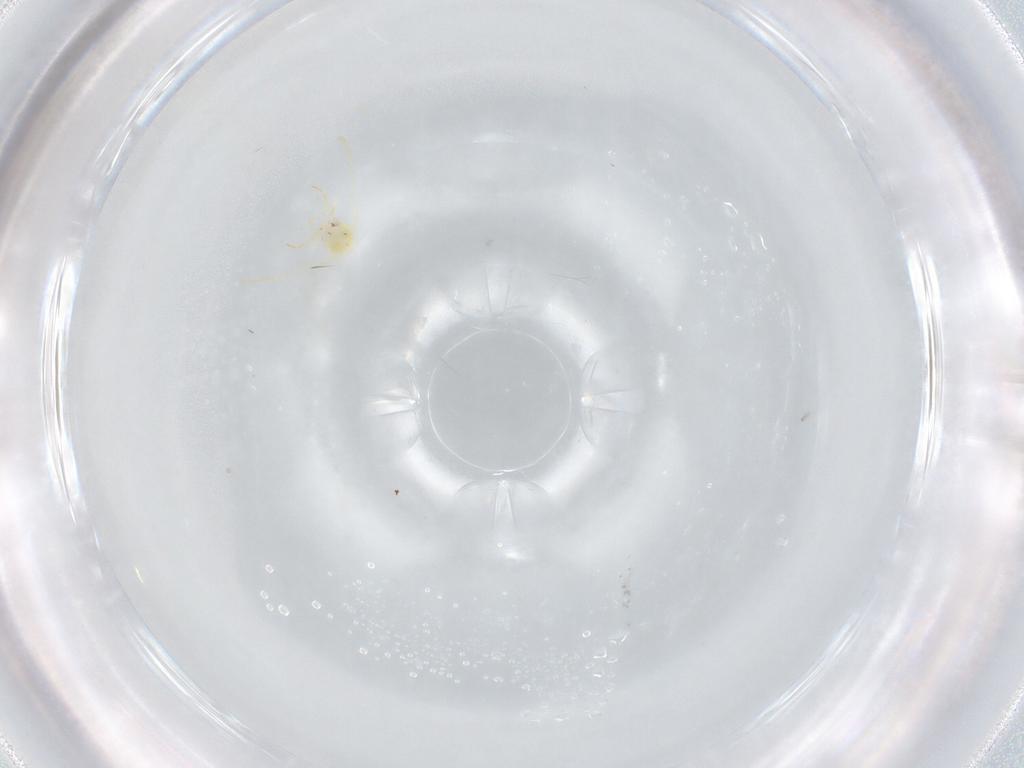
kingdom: Animalia
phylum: Arthropoda
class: Insecta
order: Hemiptera
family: Aleyrodidae
